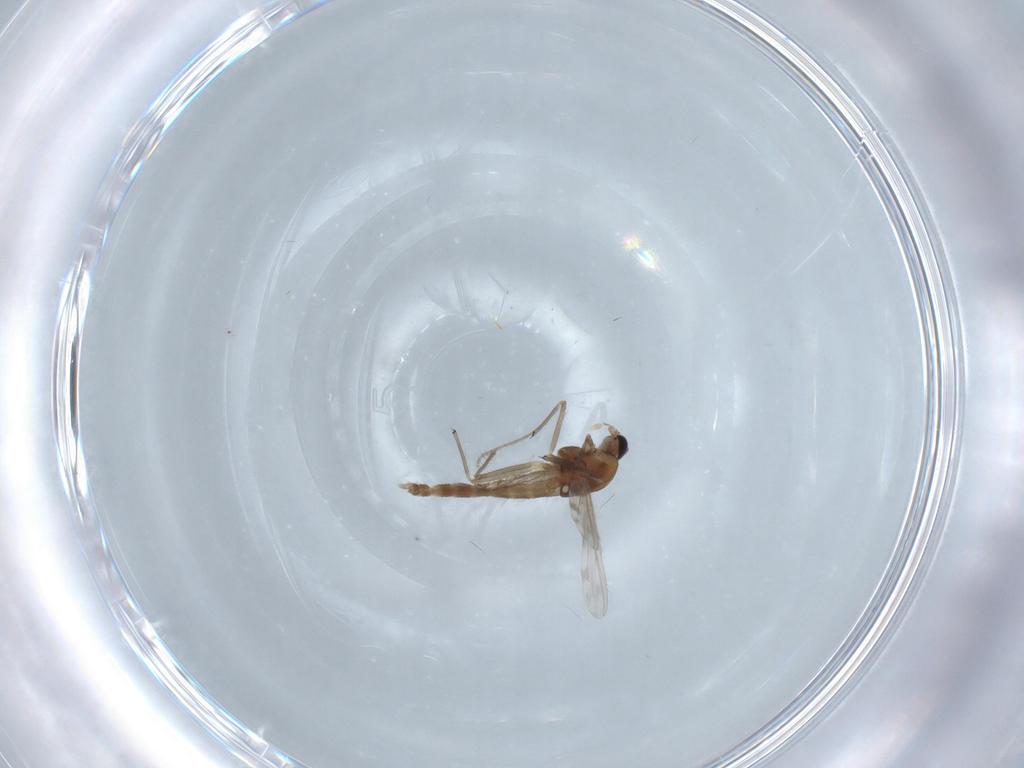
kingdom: Animalia
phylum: Arthropoda
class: Insecta
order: Diptera
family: Chironomidae
